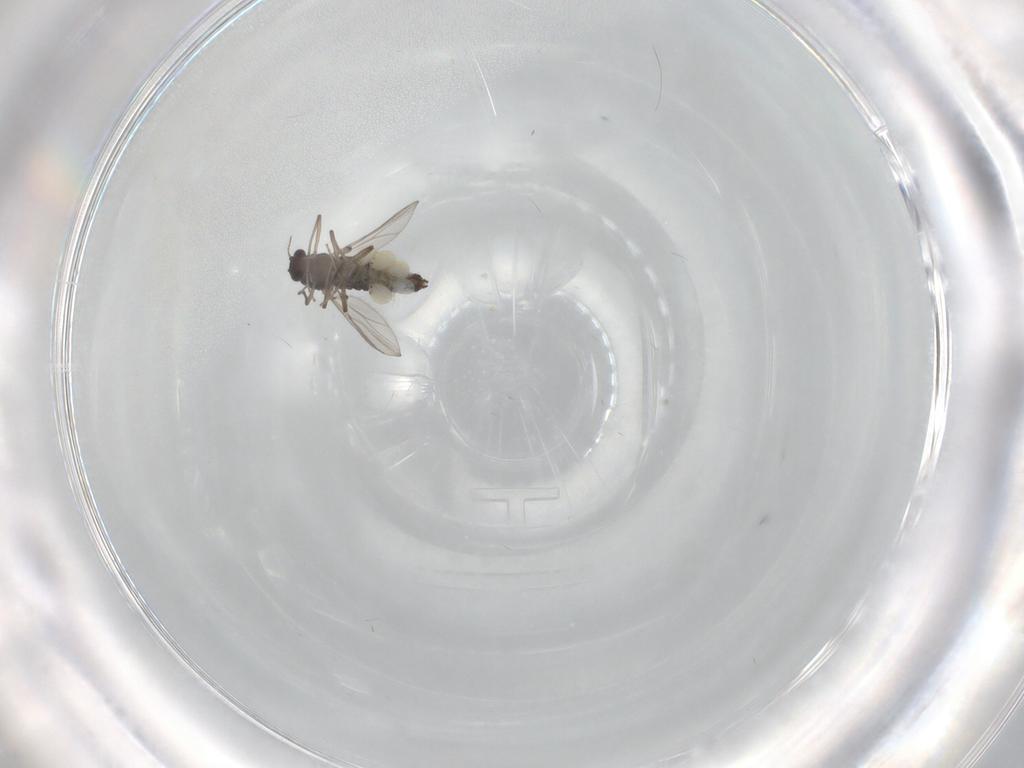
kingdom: Animalia
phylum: Arthropoda
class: Insecta
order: Diptera
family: Chironomidae
